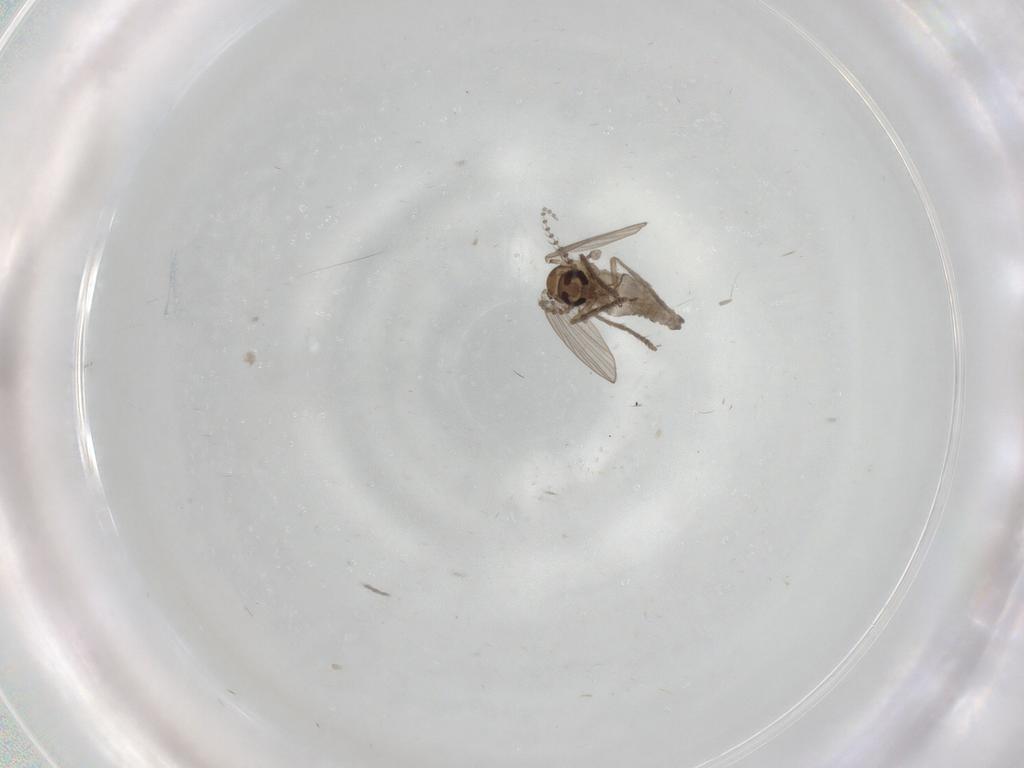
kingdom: Animalia
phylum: Arthropoda
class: Insecta
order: Diptera
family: Psychodidae
